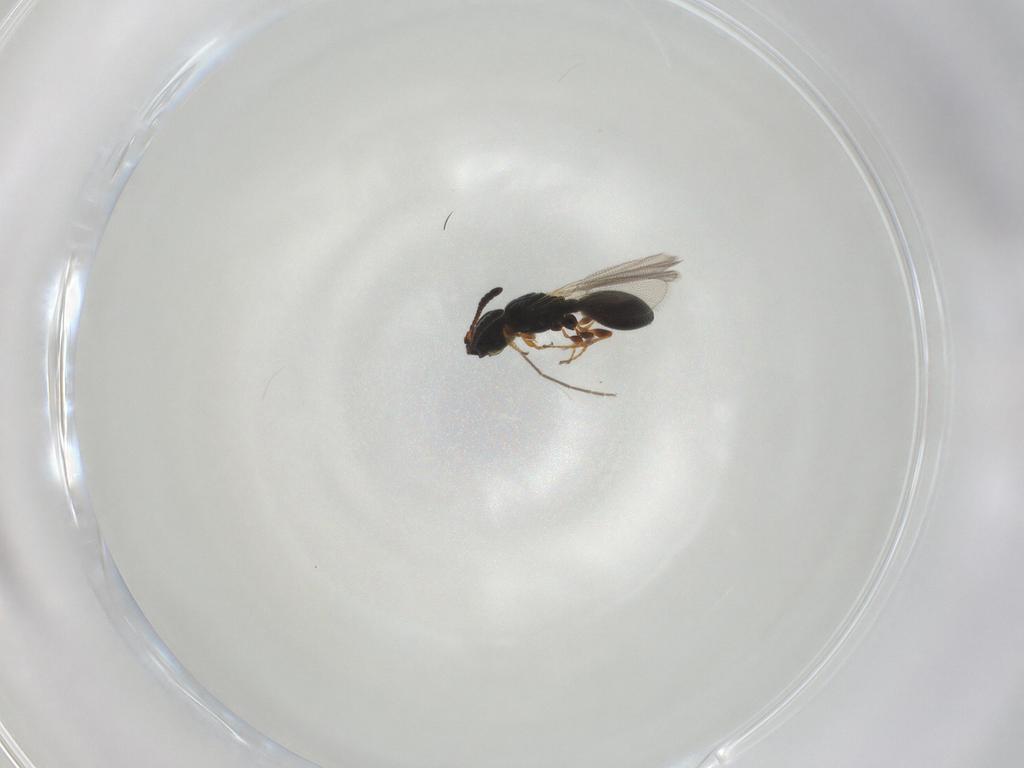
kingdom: Animalia
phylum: Arthropoda
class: Insecta
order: Hymenoptera
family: Diapriidae
